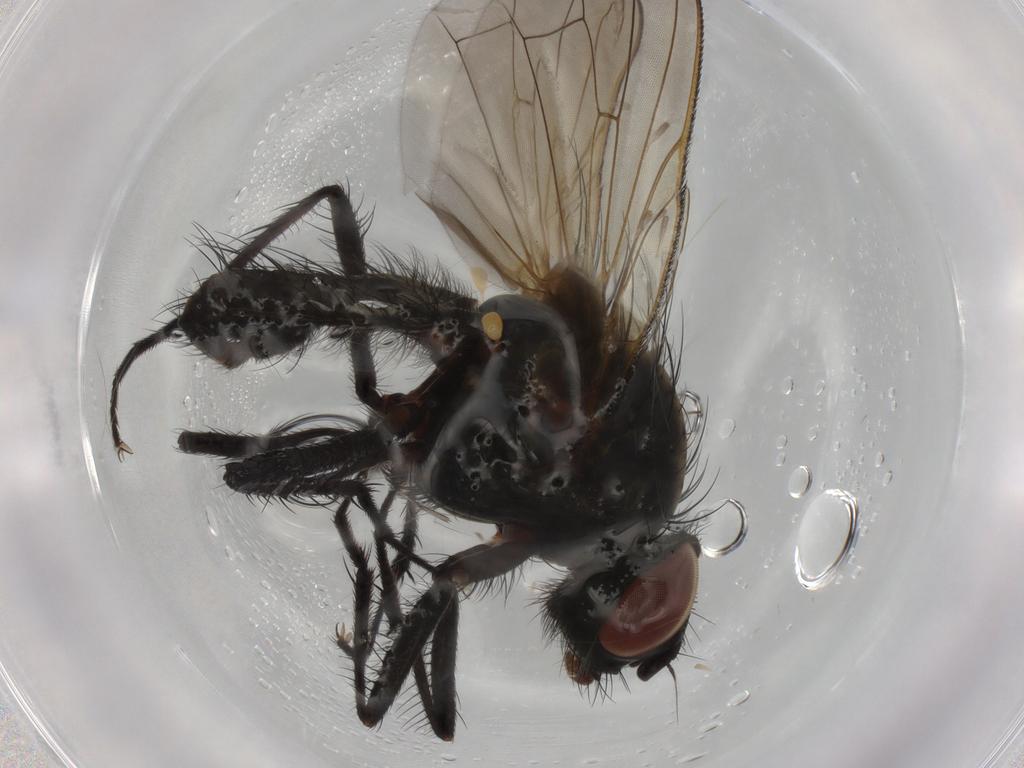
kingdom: Animalia
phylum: Arthropoda
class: Insecta
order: Diptera
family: Anthomyiidae
